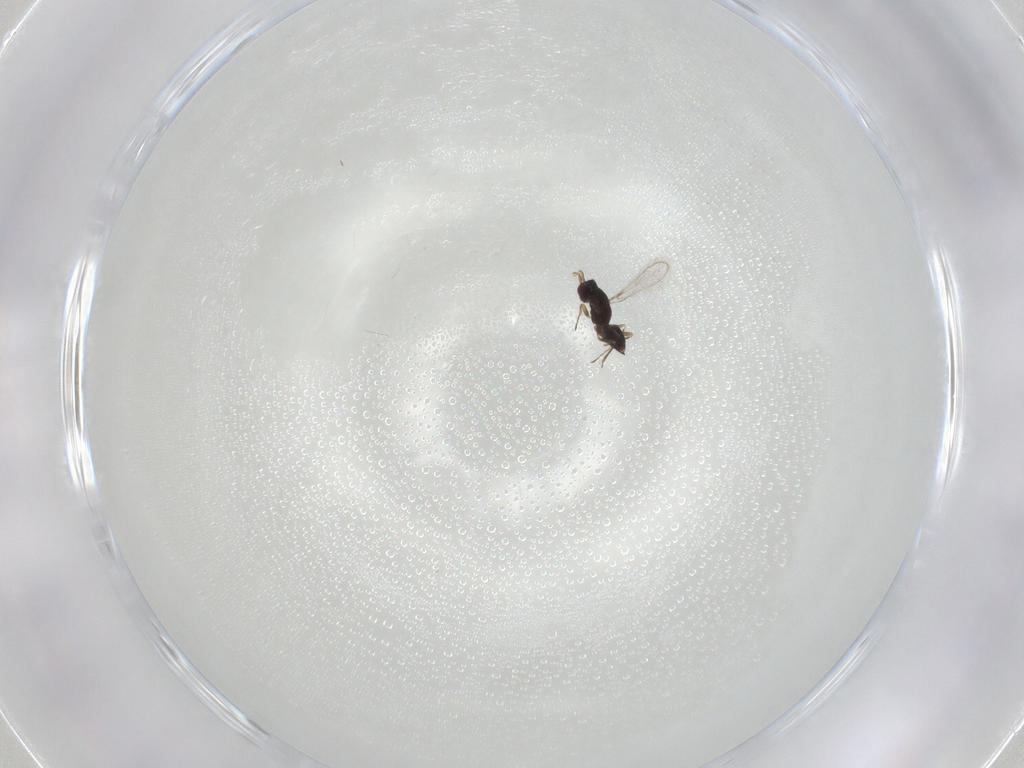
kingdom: Animalia
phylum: Arthropoda
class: Insecta
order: Hymenoptera
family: Mymaridae
